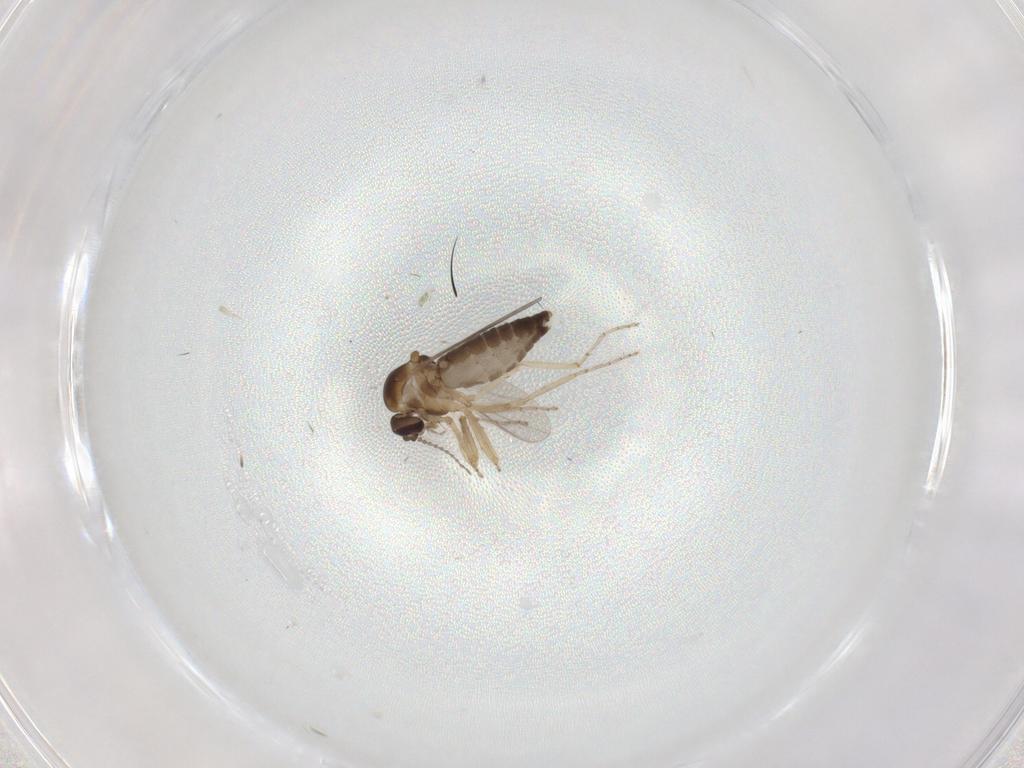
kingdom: Animalia
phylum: Arthropoda
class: Insecta
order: Diptera
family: Ceratopogonidae
